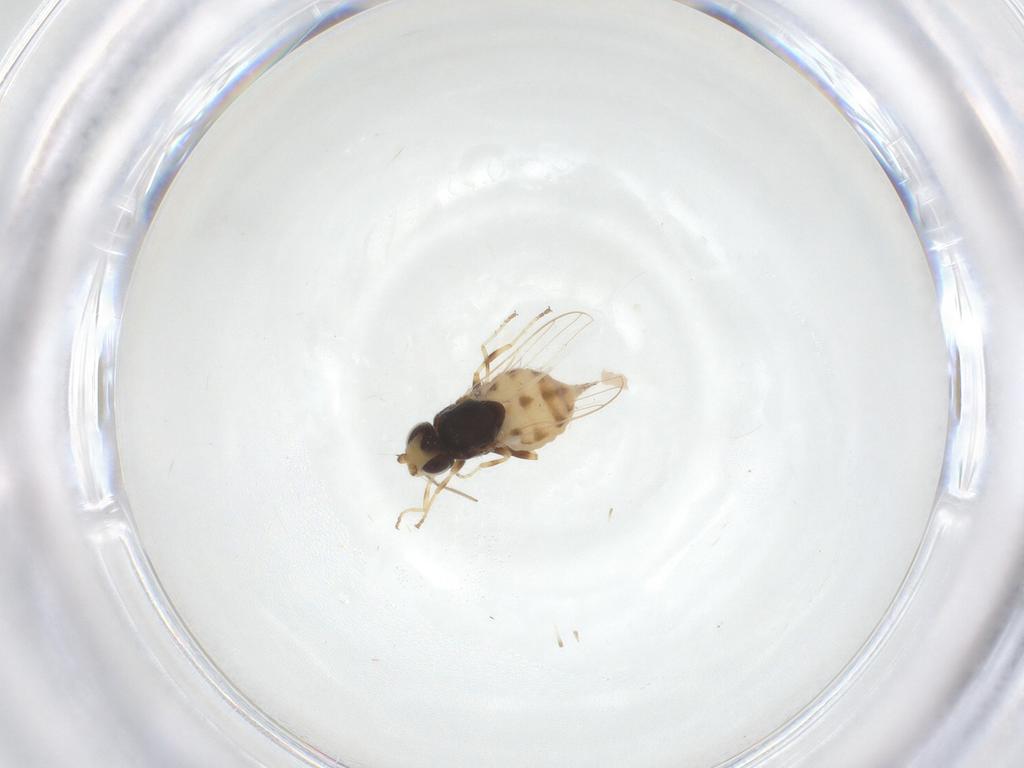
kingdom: Animalia
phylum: Arthropoda
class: Insecta
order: Diptera
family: Chloropidae
